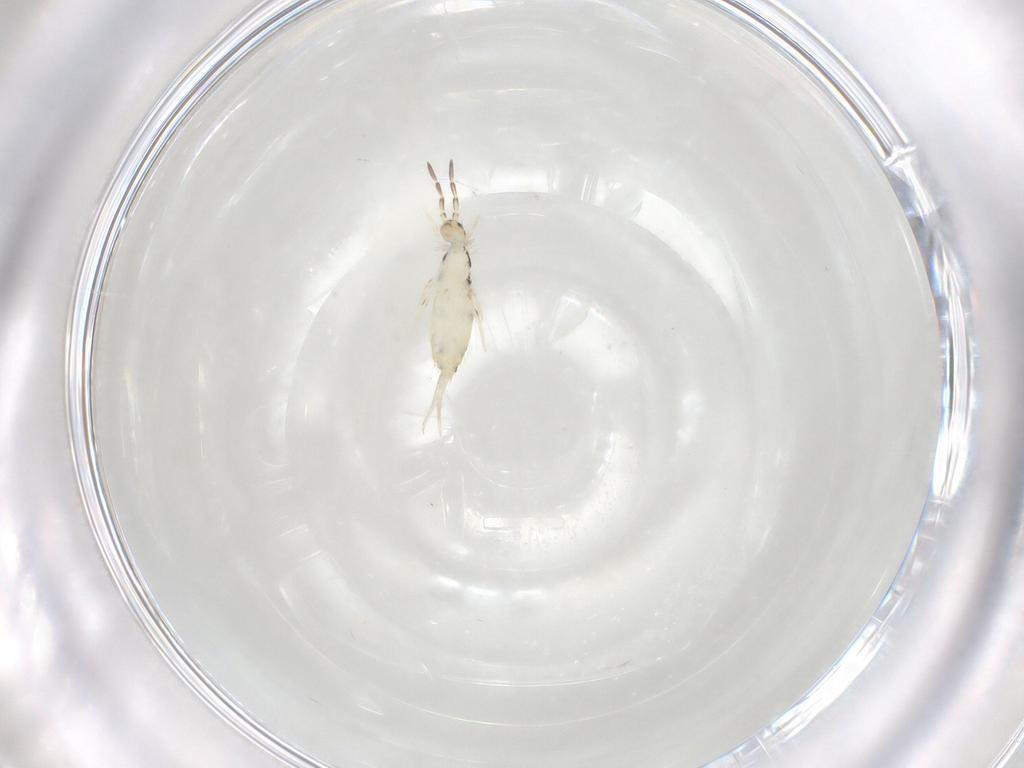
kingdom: Animalia
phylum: Arthropoda
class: Collembola
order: Entomobryomorpha
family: Entomobryidae
